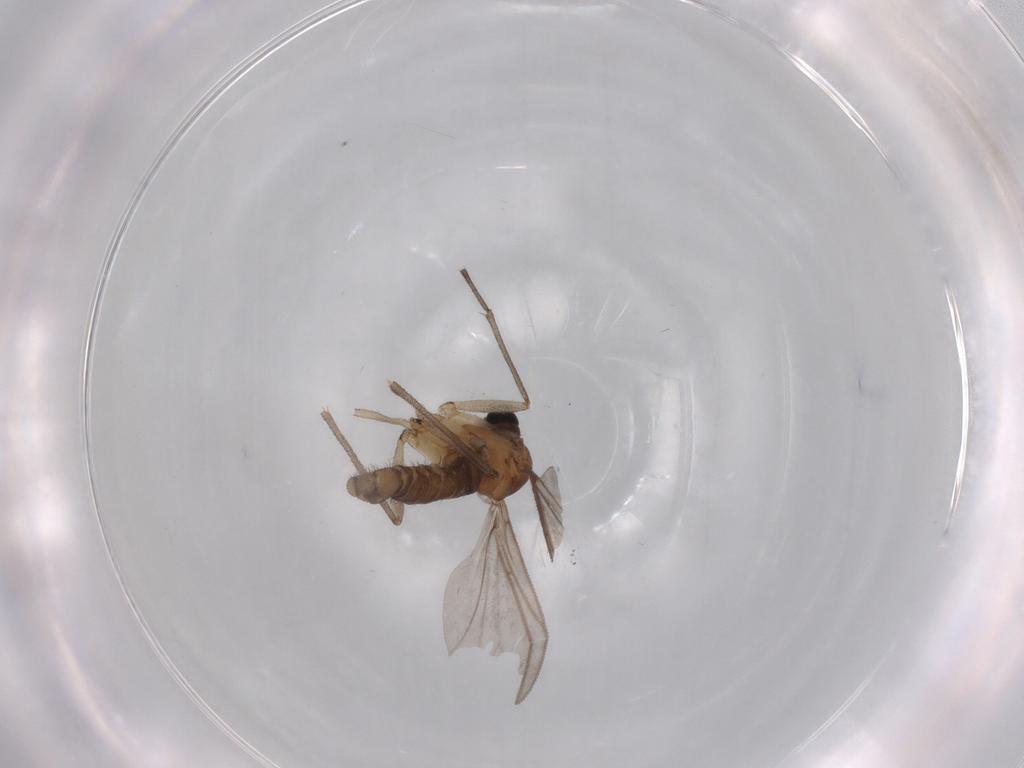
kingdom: Animalia
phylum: Arthropoda
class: Insecta
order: Diptera
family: Sciaridae
